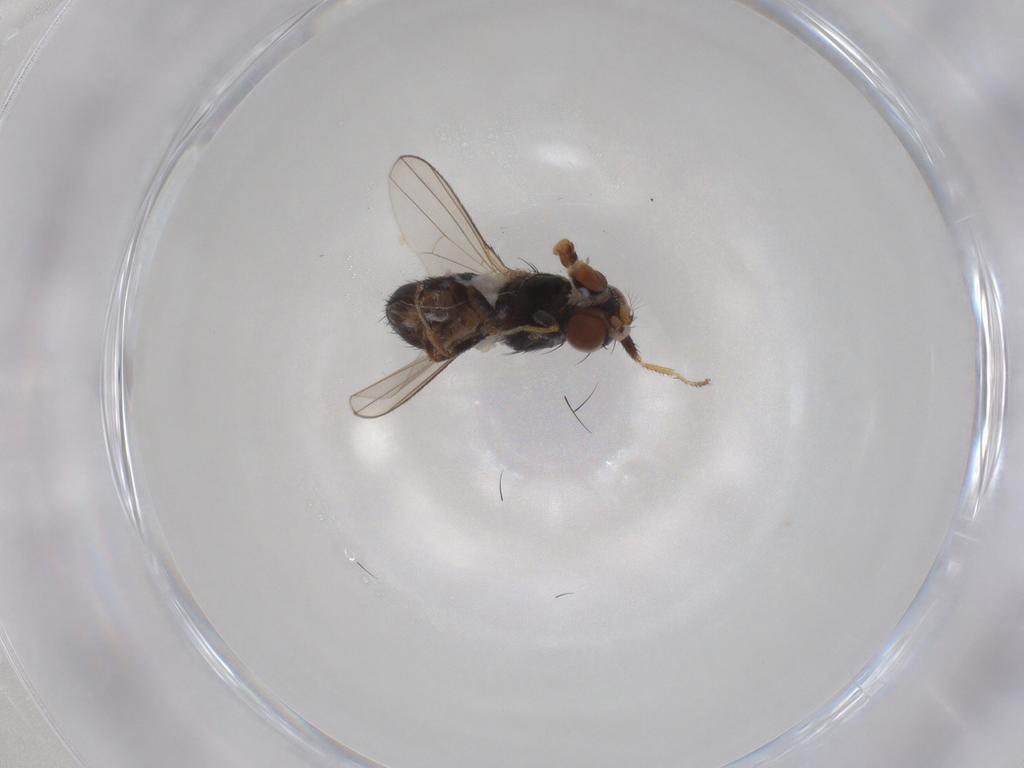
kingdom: Animalia
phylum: Arthropoda
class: Insecta
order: Diptera
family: Ephydridae
